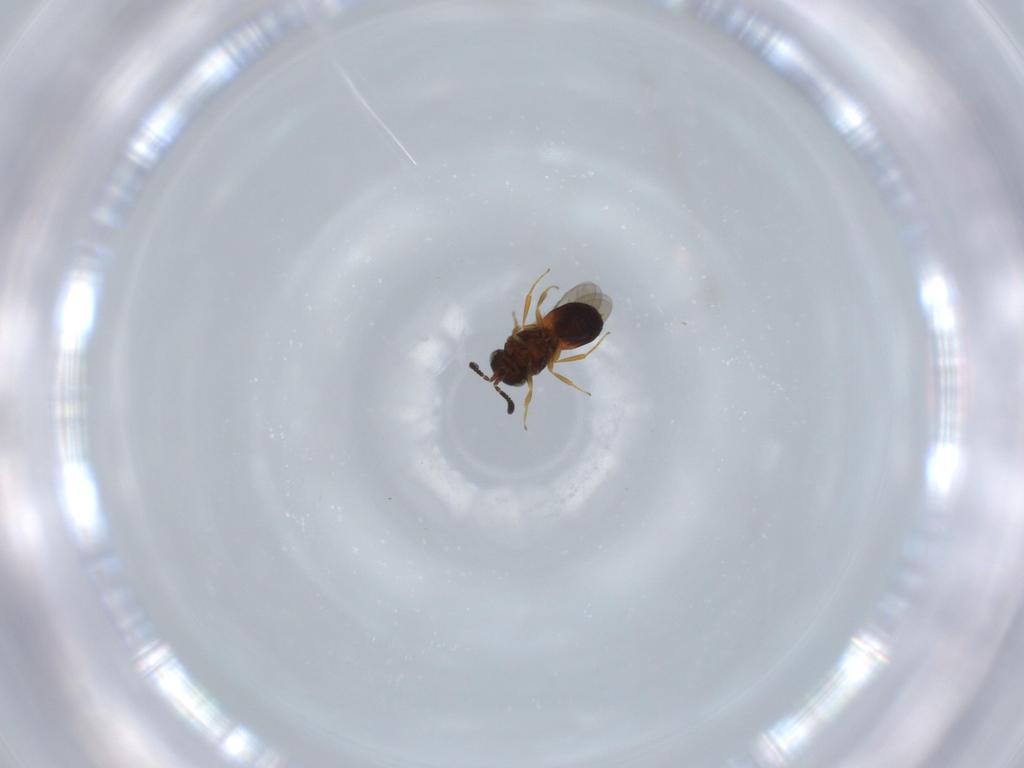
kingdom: Animalia
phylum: Arthropoda
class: Insecta
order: Hymenoptera
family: Scelionidae
